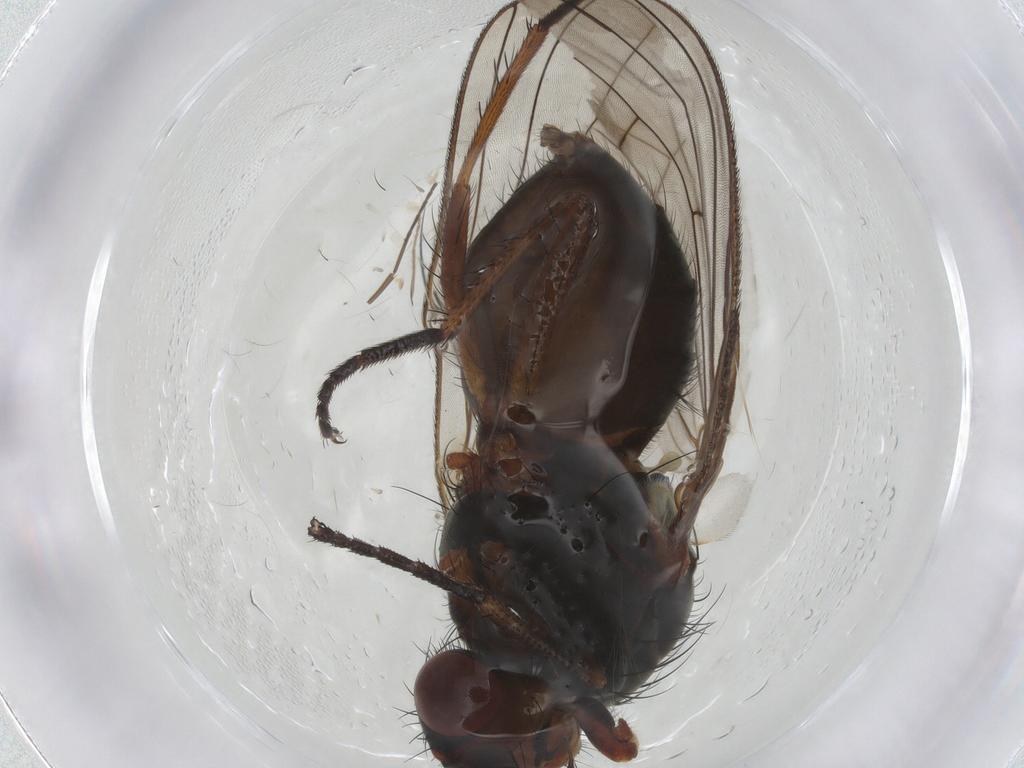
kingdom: Animalia
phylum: Arthropoda
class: Insecta
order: Diptera
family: Anthomyiidae
